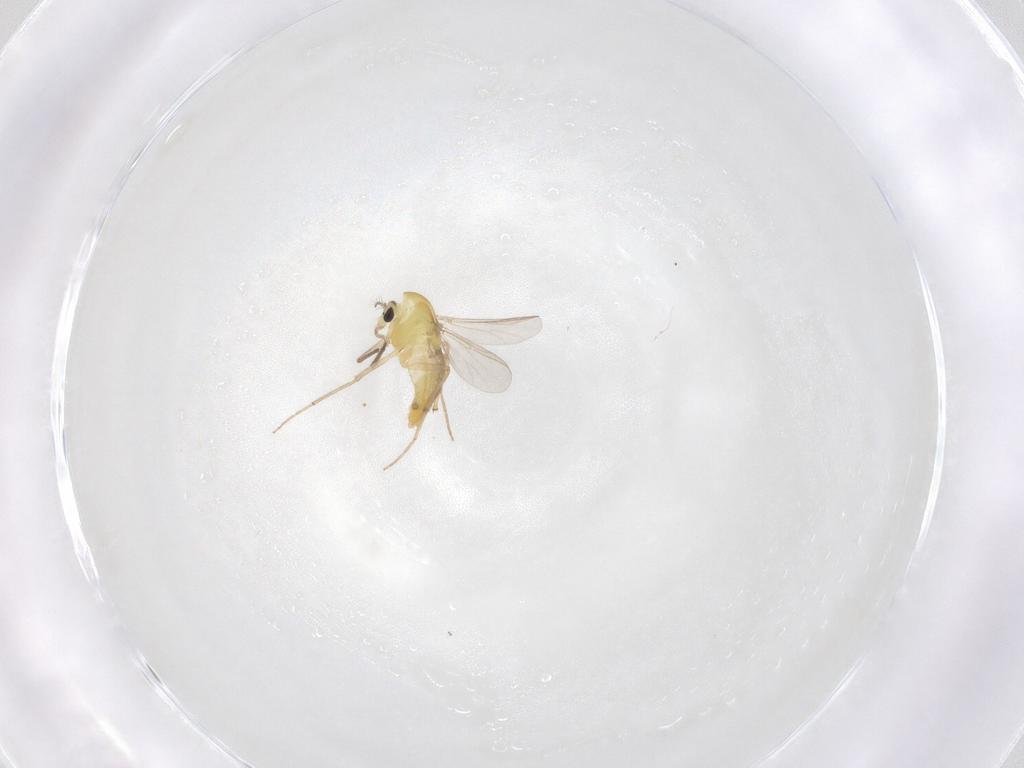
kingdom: Animalia
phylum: Arthropoda
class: Insecta
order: Diptera
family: Chironomidae
